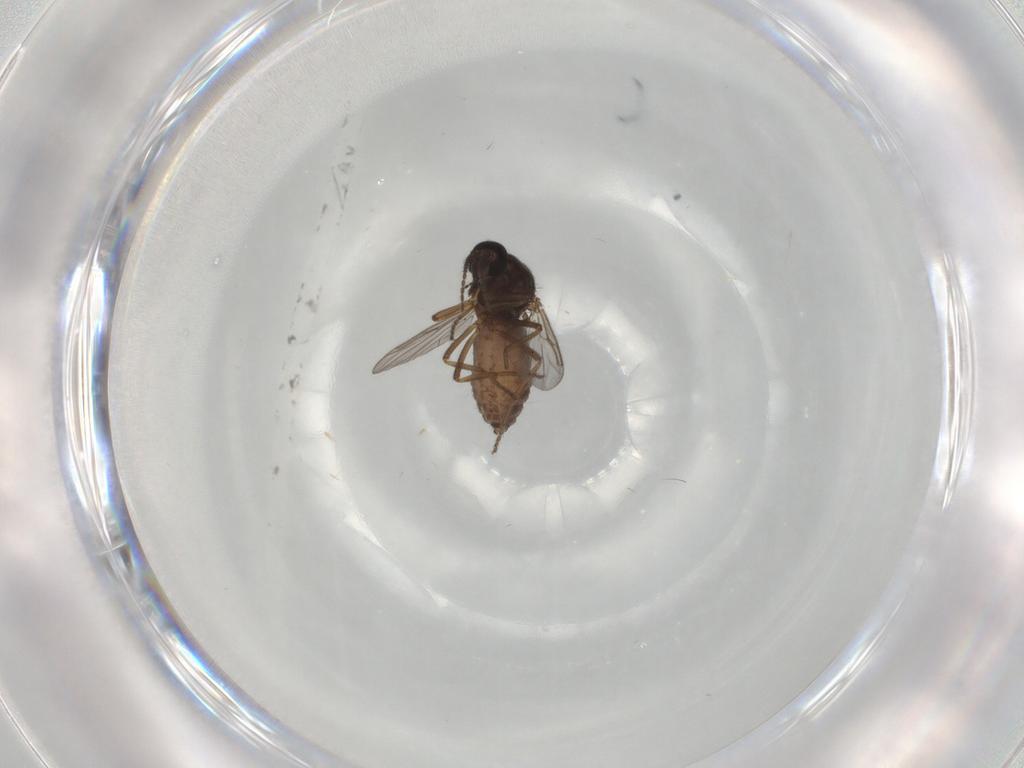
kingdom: Animalia
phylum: Arthropoda
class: Insecta
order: Diptera
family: Ceratopogonidae
